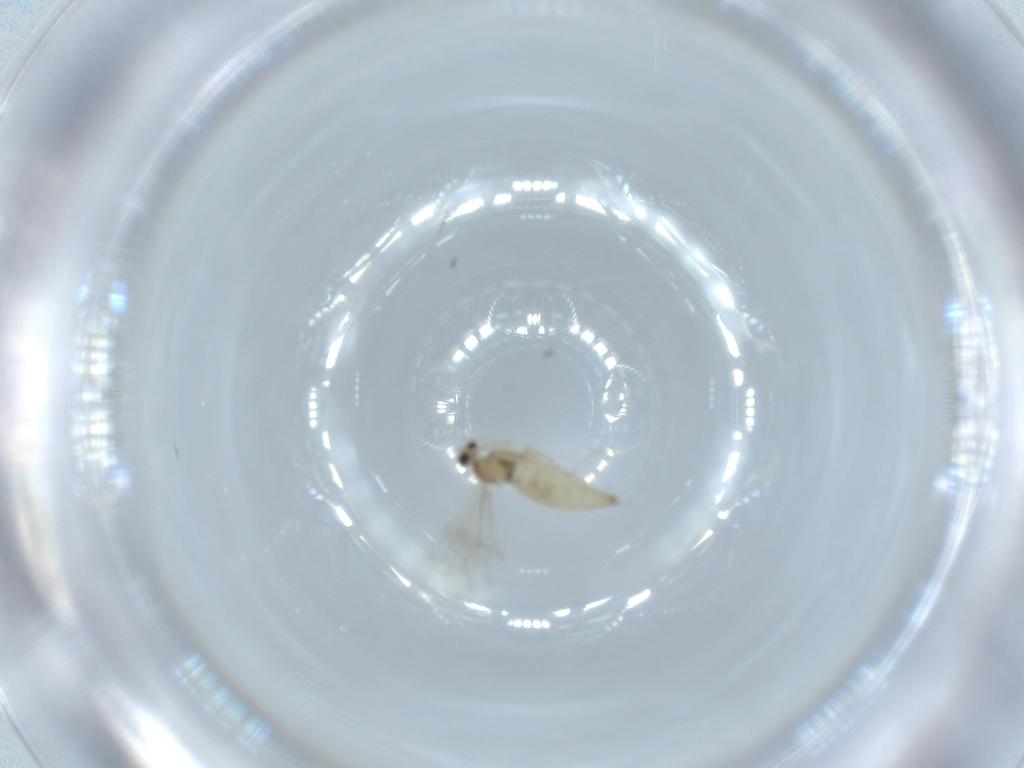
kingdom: Animalia
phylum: Arthropoda
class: Insecta
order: Diptera
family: Cecidomyiidae
